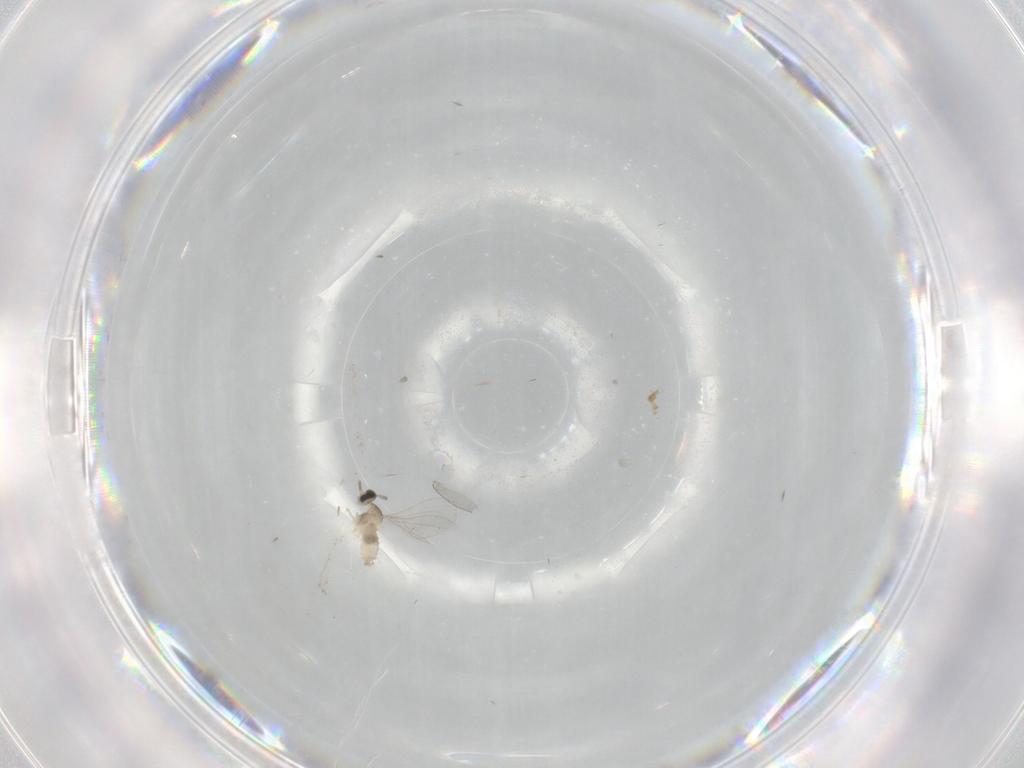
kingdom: Animalia
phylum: Arthropoda
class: Insecta
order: Diptera
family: Cecidomyiidae
